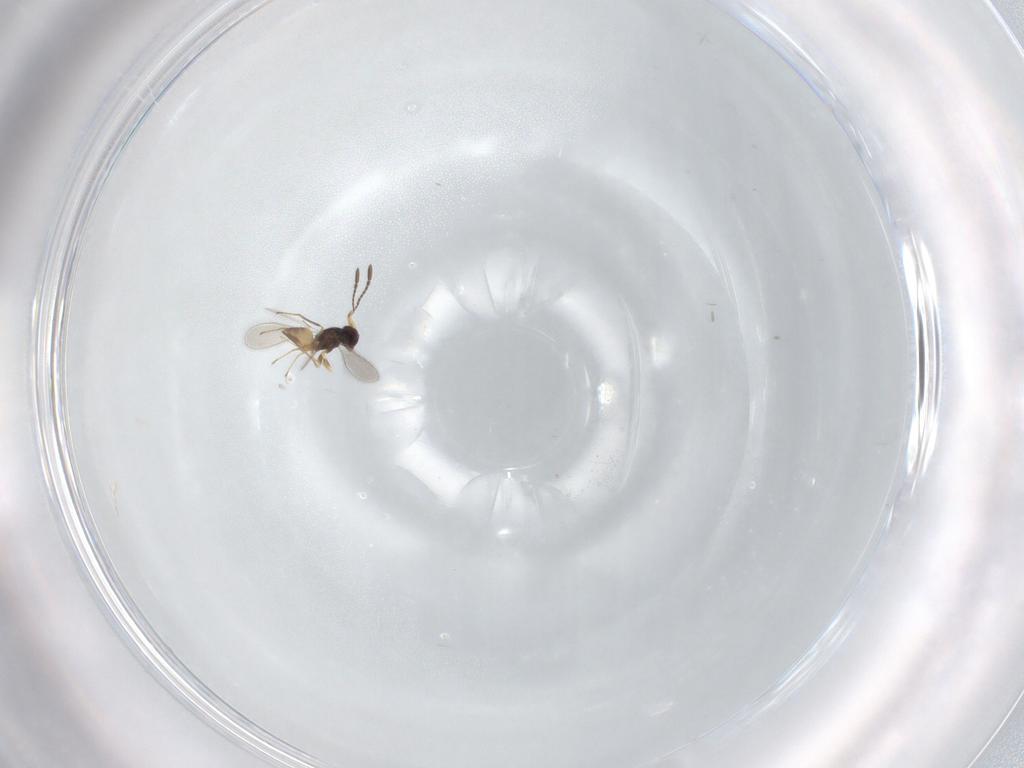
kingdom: Animalia
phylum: Arthropoda
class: Insecta
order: Hymenoptera
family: Mymaridae
